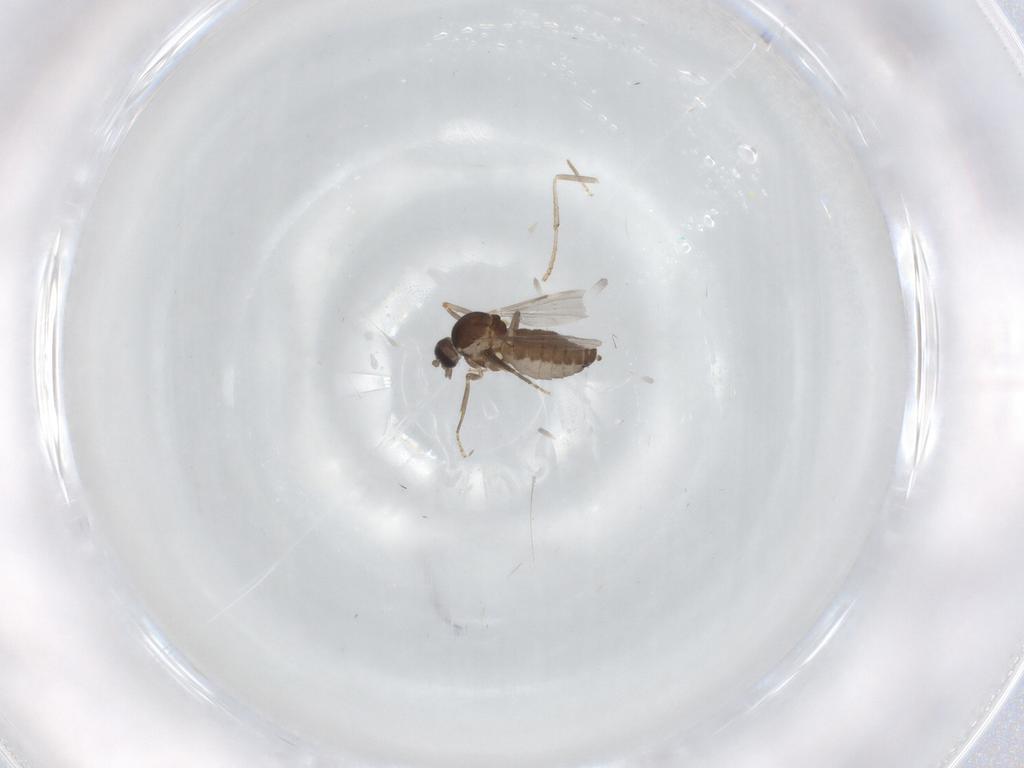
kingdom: Animalia
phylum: Arthropoda
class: Insecta
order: Diptera
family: Ceratopogonidae
